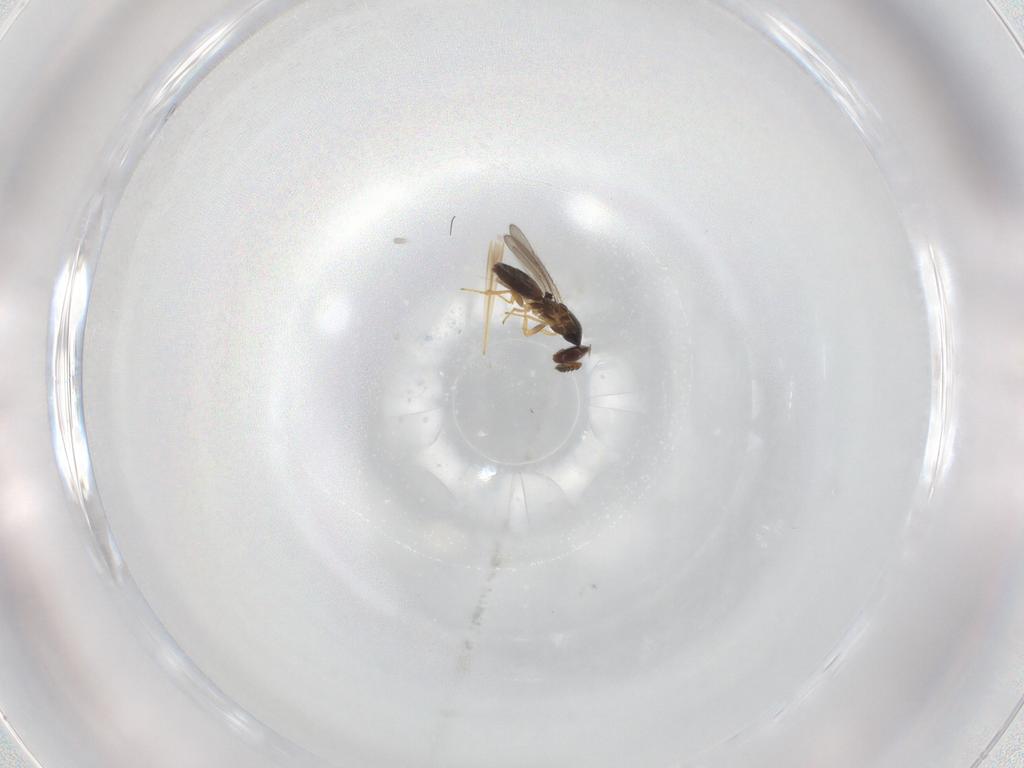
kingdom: Animalia
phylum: Arthropoda
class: Insecta
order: Hymenoptera
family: Eulophidae
